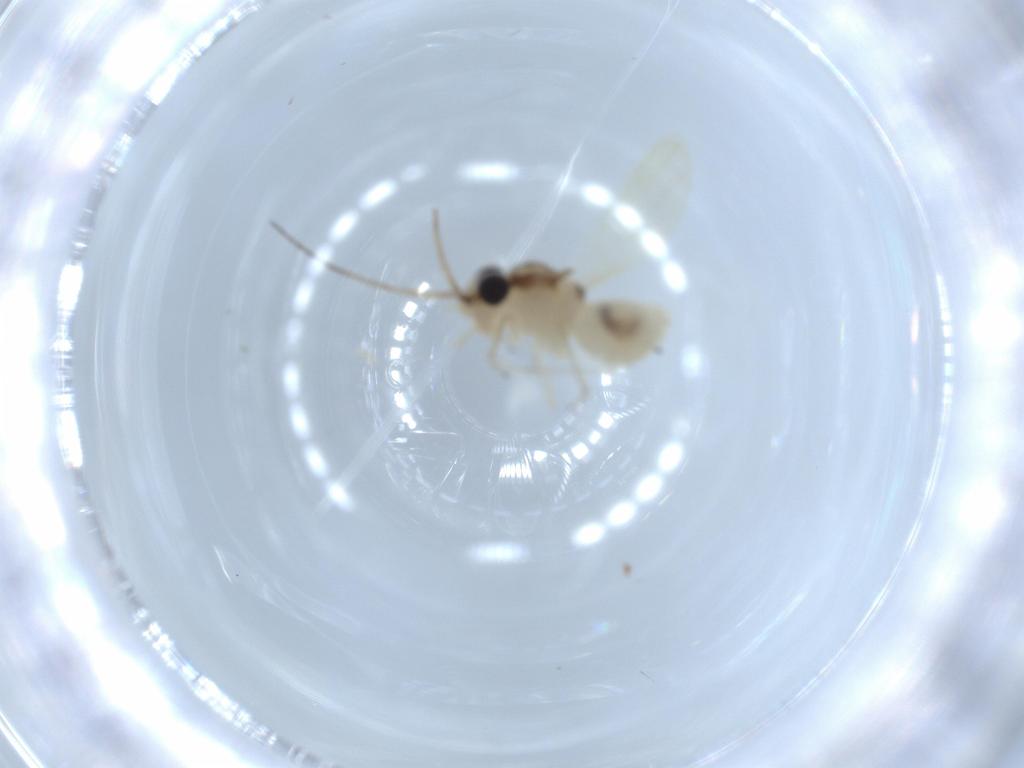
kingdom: Animalia
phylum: Arthropoda
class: Insecta
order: Psocodea
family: Caeciliusidae
